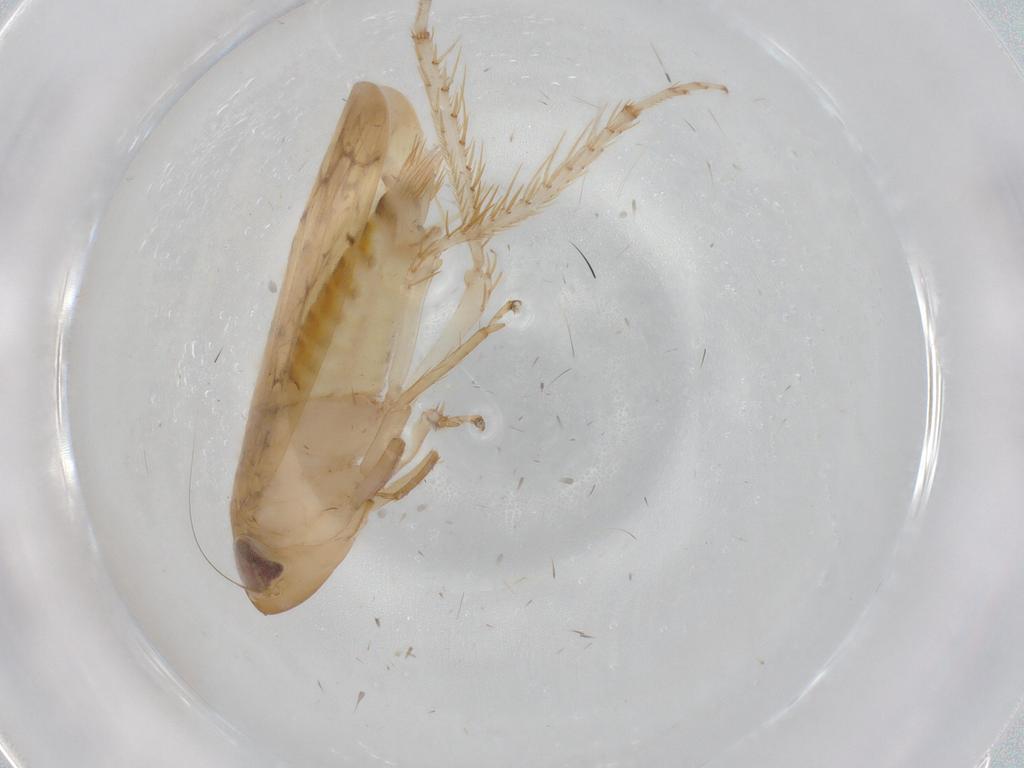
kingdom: Animalia
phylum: Arthropoda
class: Insecta
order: Hemiptera
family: Cicadellidae
